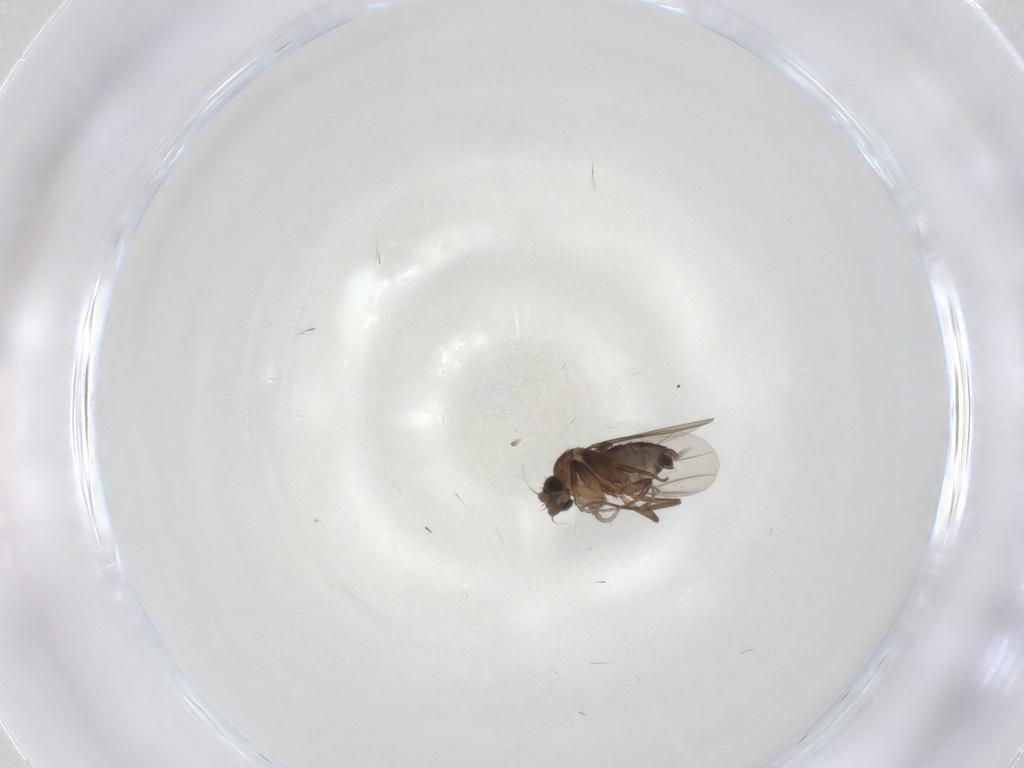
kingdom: Animalia
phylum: Arthropoda
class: Insecta
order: Diptera
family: Phoridae
